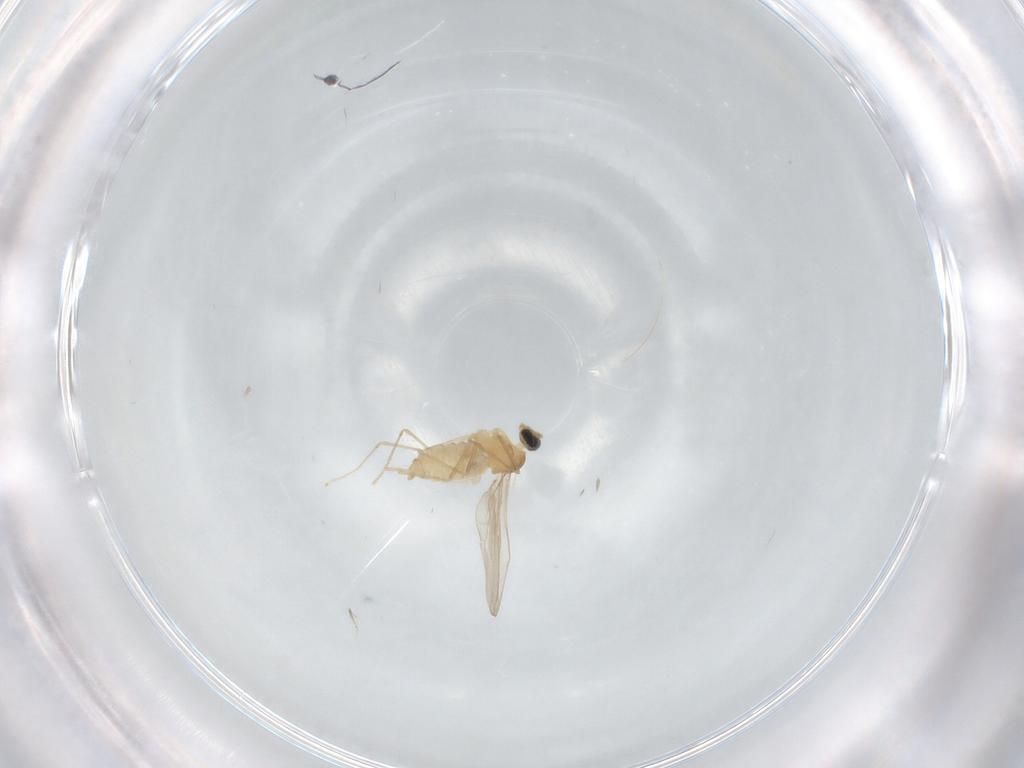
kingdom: Animalia
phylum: Arthropoda
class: Insecta
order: Diptera
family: Cecidomyiidae
